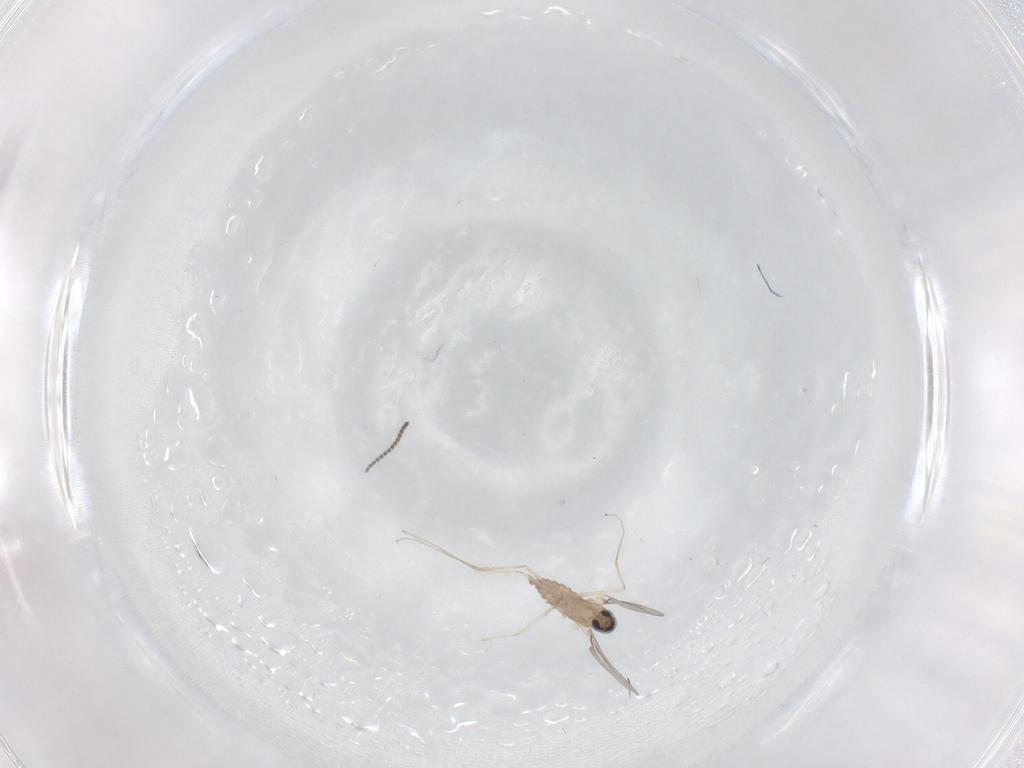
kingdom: Animalia
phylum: Arthropoda
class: Insecta
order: Diptera
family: Cecidomyiidae
